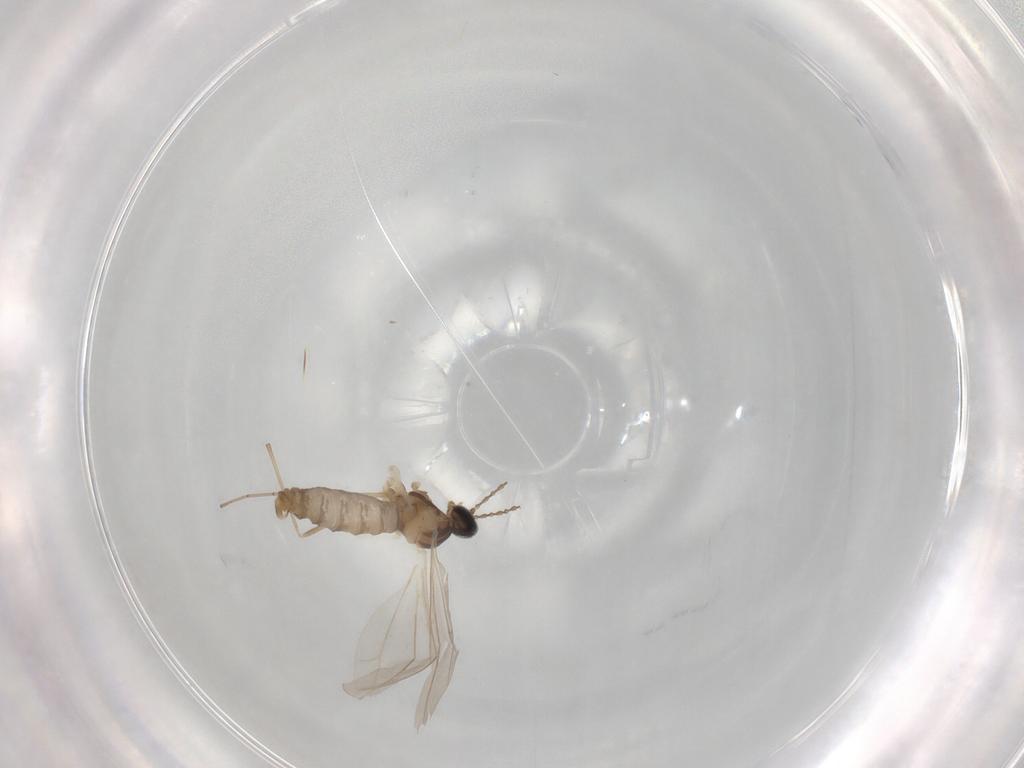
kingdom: Animalia
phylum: Arthropoda
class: Insecta
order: Diptera
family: Cecidomyiidae
